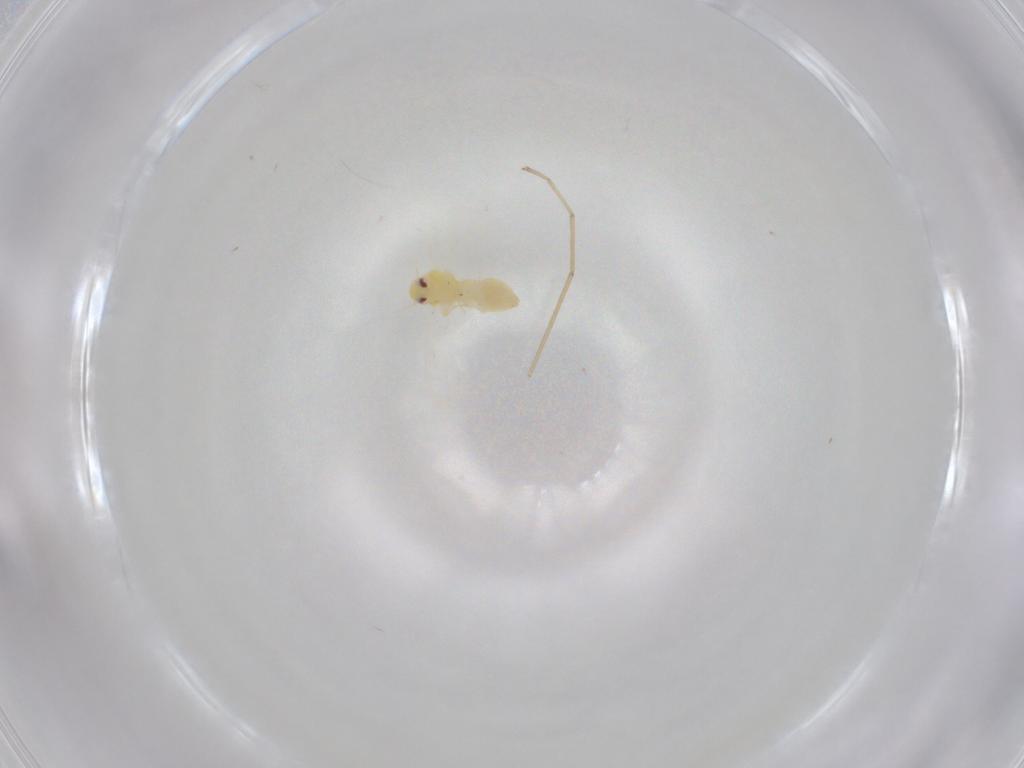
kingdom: Animalia
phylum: Arthropoda
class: Insecta
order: Hemiptera
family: Aleyrodidae
